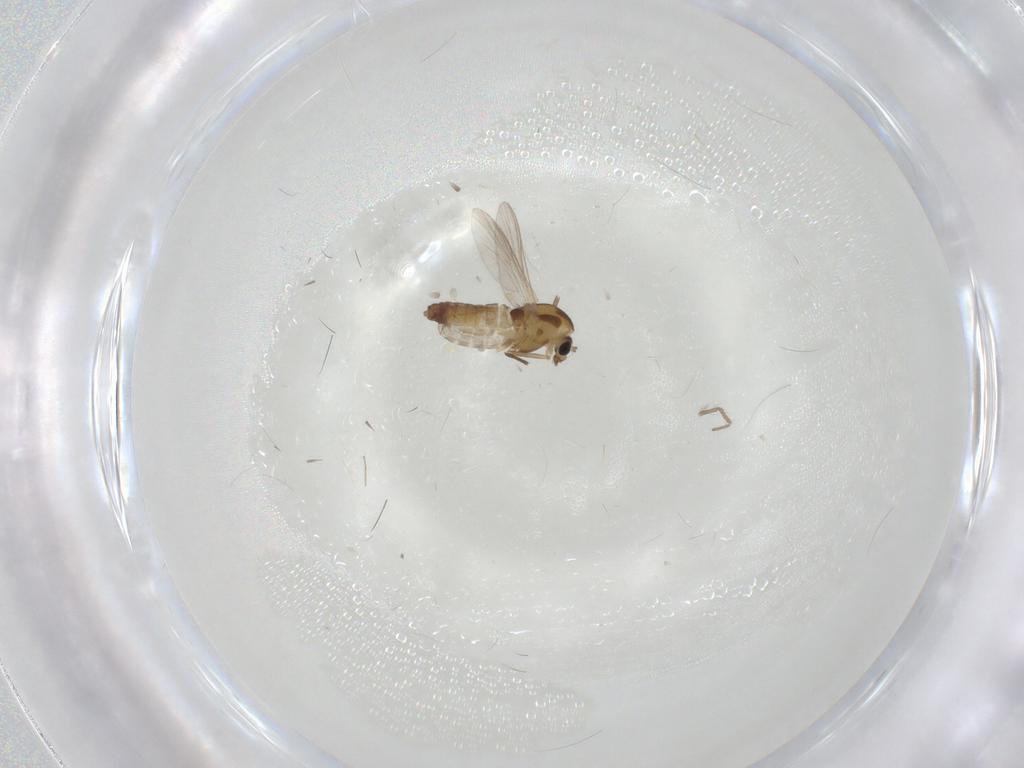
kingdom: Animalia
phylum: Arthropoda
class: Insecta
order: Diptera
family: Chironomidae
